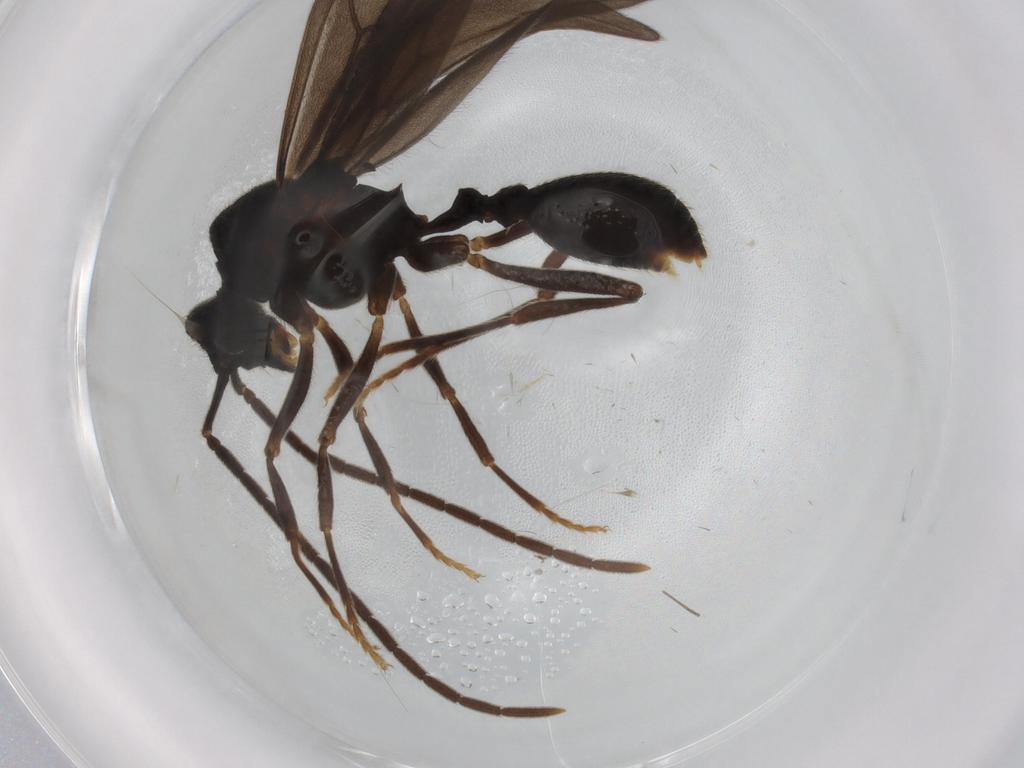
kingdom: Animalia
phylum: Arthropoda
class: Insecta
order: Hymenoptera
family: Formicidae
